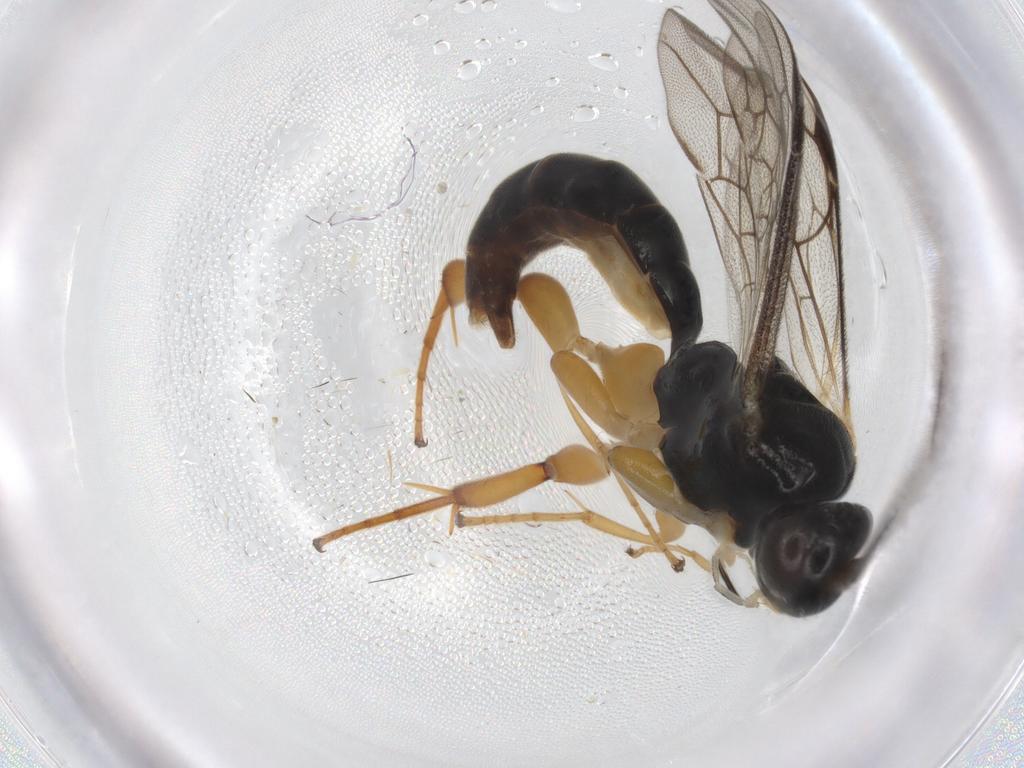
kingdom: Animalia
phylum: Arthropoda
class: Insecta
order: Hymenoptera
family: Ichneumonidae
